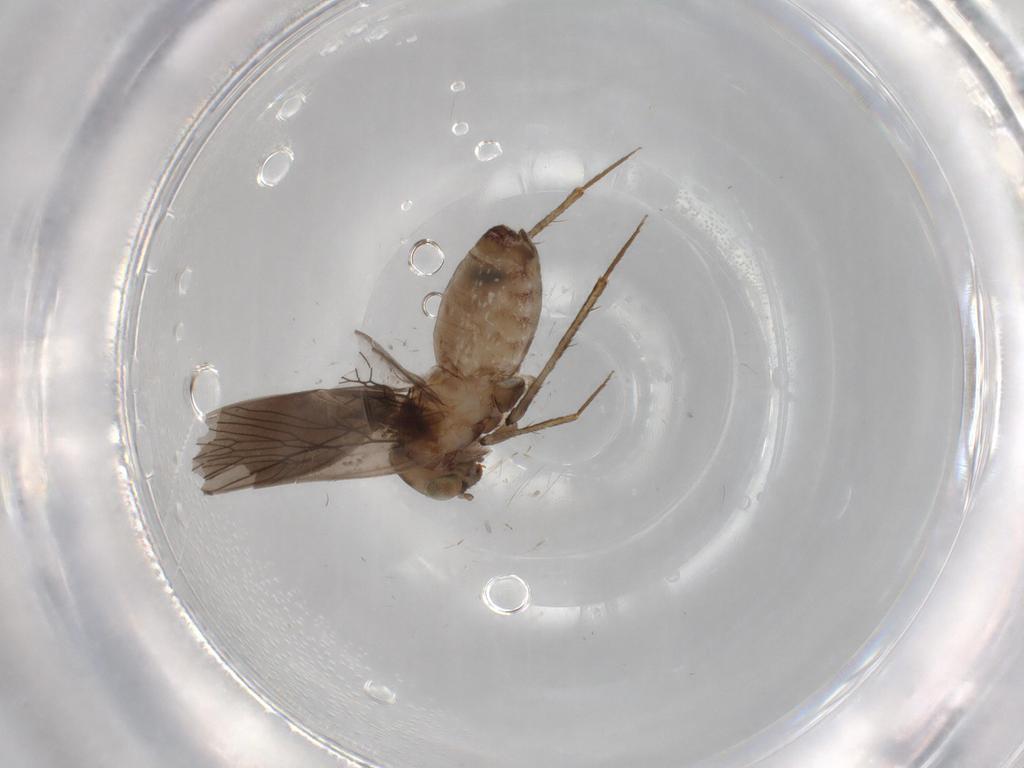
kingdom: Animalia
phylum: Arthropoda
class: Insecta
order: Psocodea
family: Lepidopsocidae
